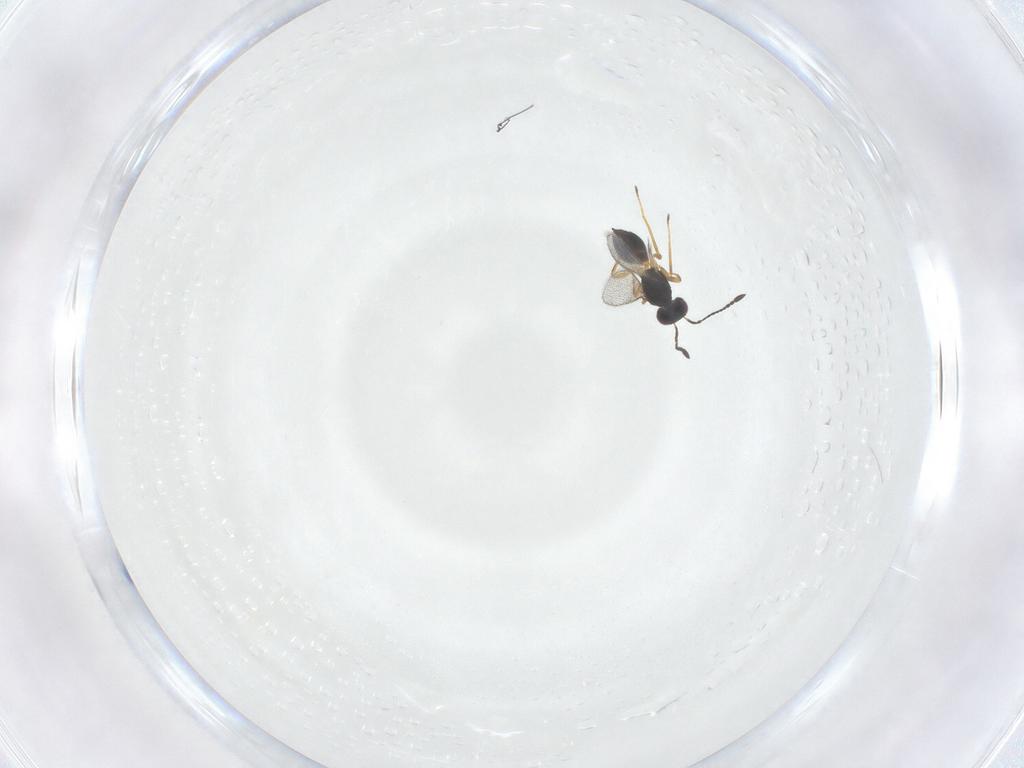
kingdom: Animalia
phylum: Arthropoda
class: Insecta
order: Hymenoptera
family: Mymaridae
